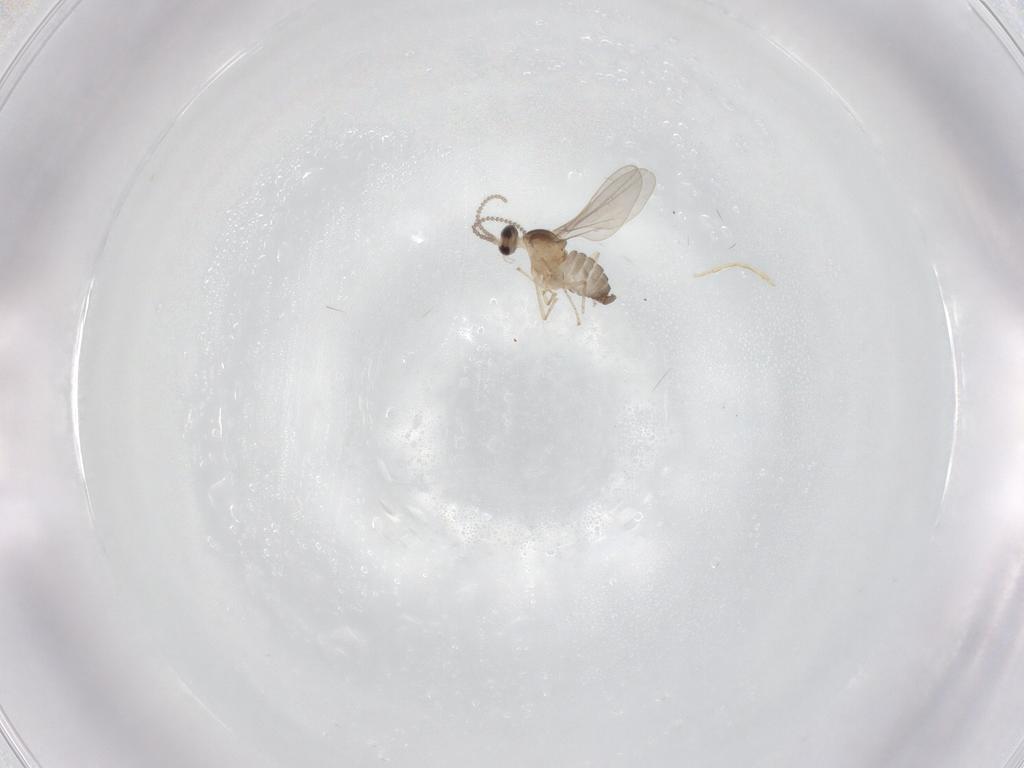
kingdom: Animalia
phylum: Arthropoda
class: Insecta
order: Diptera
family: Cecidomyiidae
